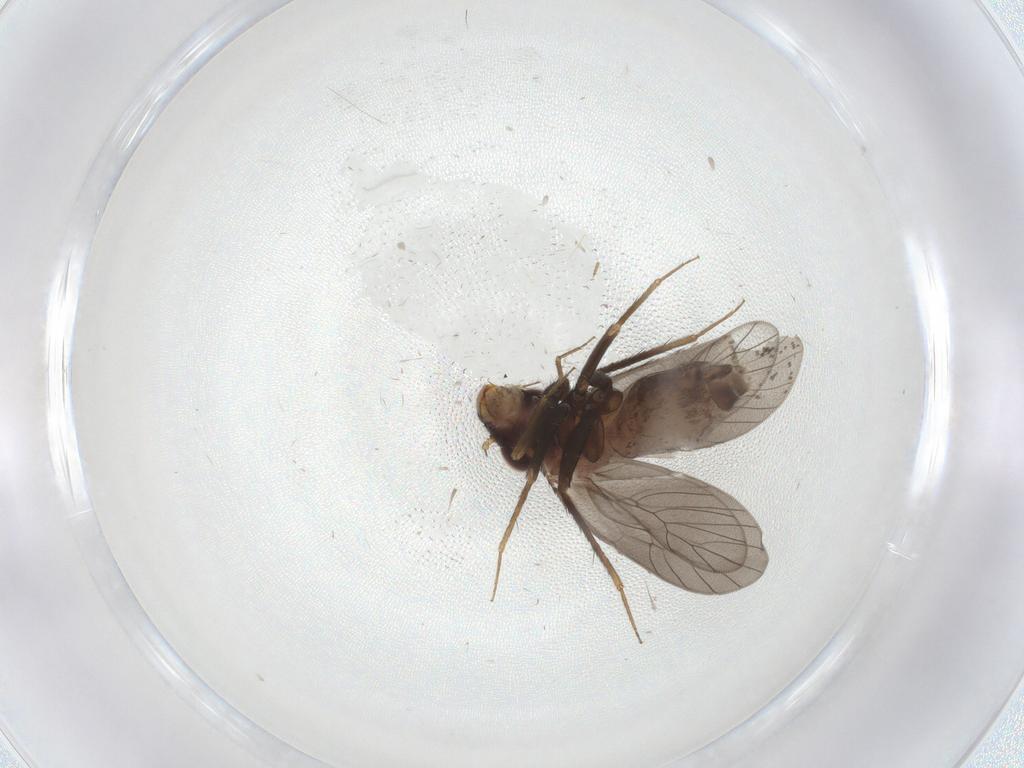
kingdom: Animalia
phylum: Arthropoda
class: Insecta
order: Psocodea
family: Lepidopsocidae
